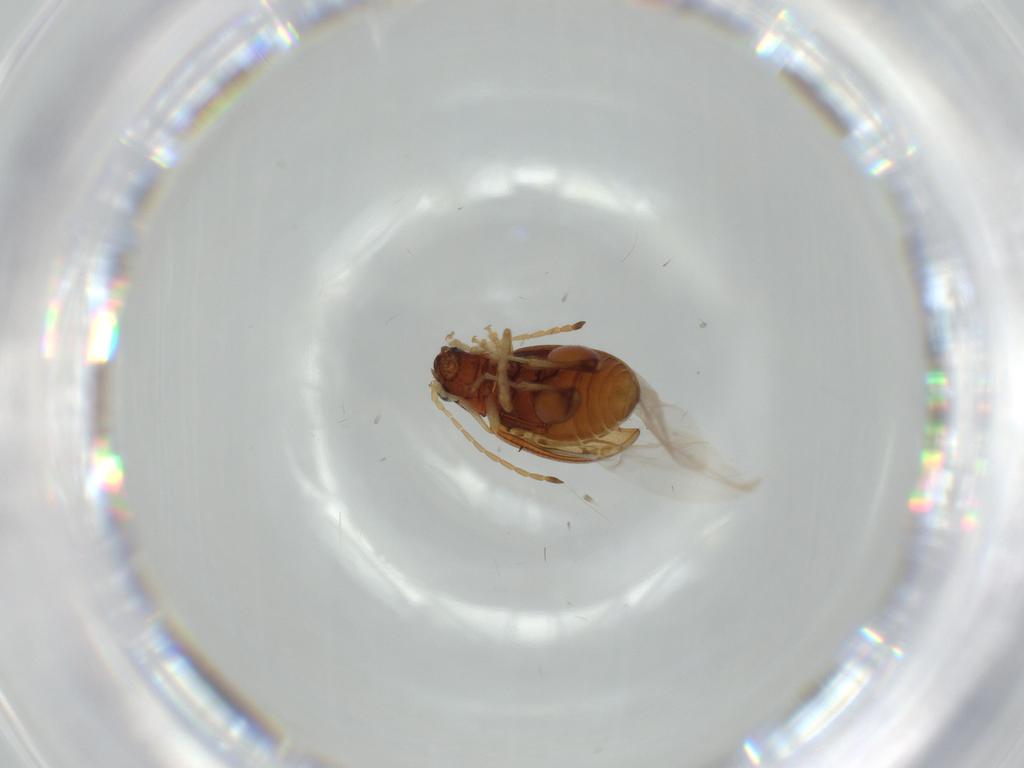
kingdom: Animalia
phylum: Arthropoda
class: Insecta
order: Coleoptera
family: Chrysomelidae
